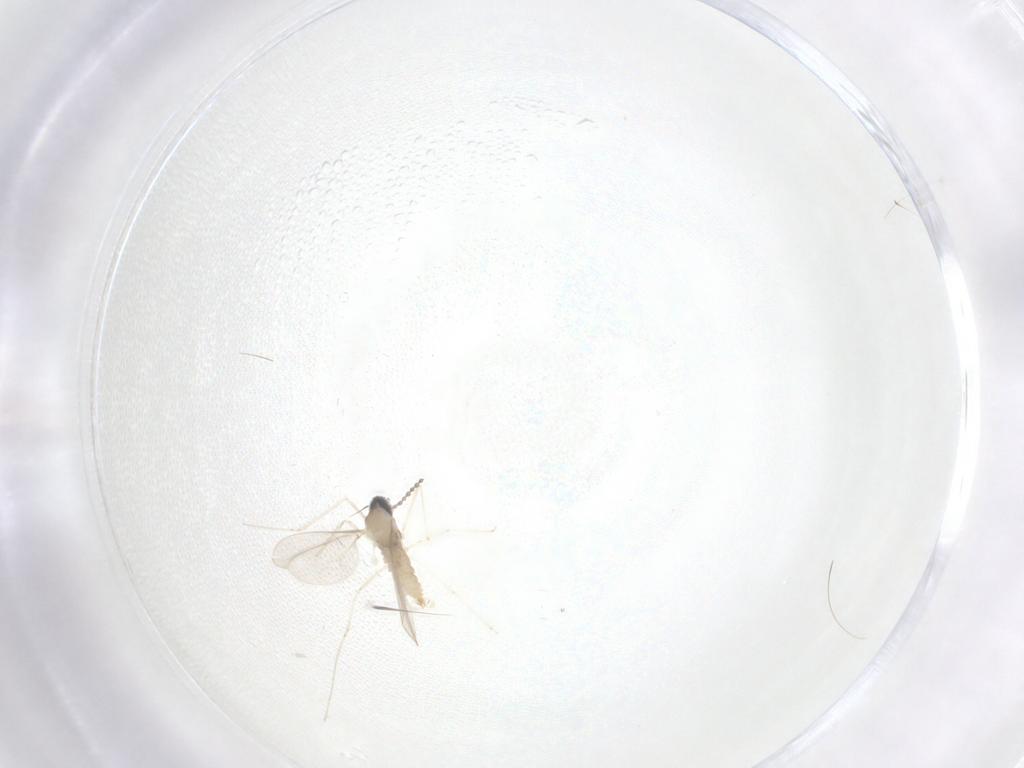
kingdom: Animalia
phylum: Arthropoda
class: Insecta
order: Diptera
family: Cecidomyiidae
